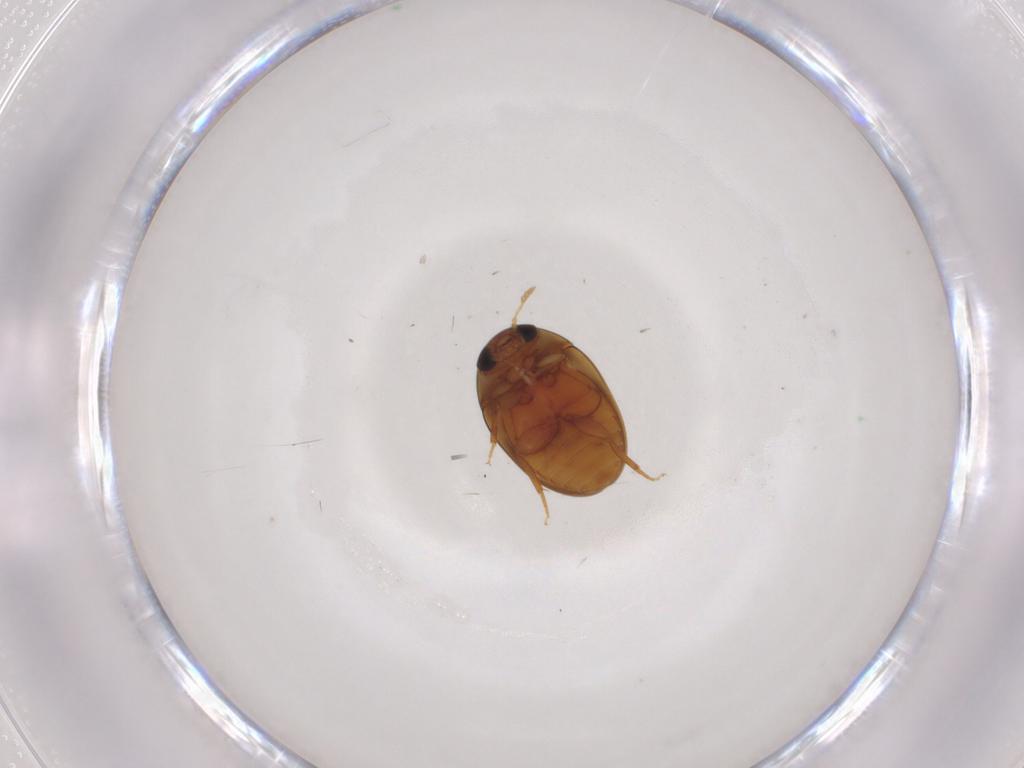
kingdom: Animalia
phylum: Arthropoda
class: Insecta
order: Coleoptera
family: Phalacridae
